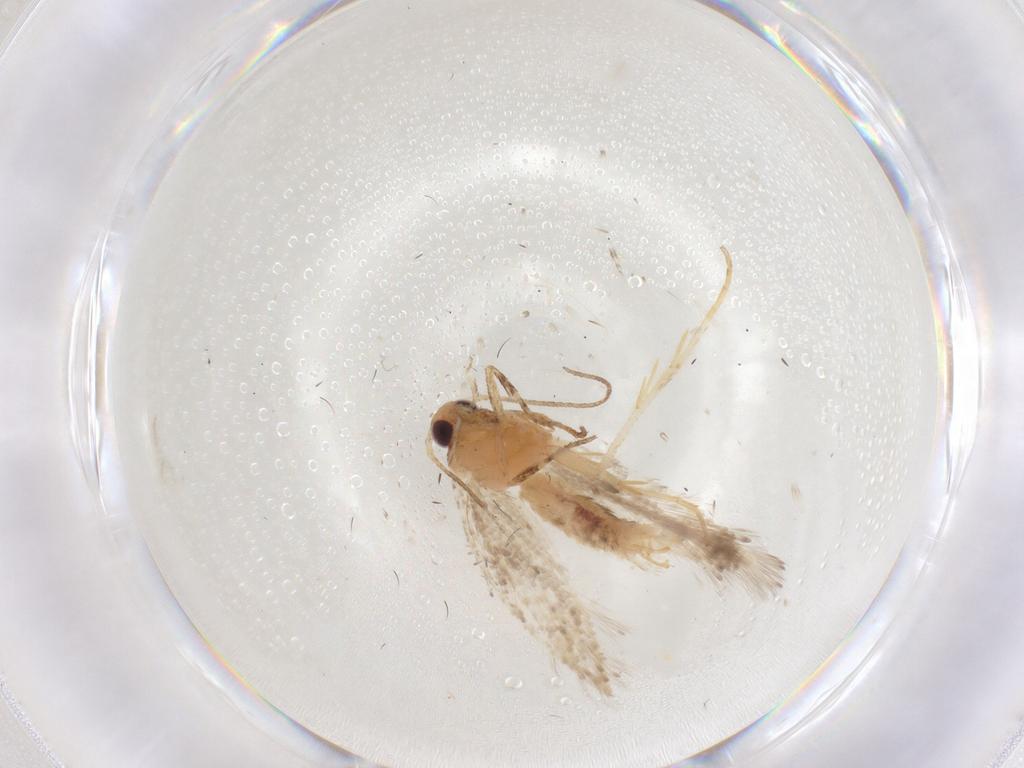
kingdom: Animalia
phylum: Arthropoda
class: Insecta
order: Lepidoptera
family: Gelechiidae
